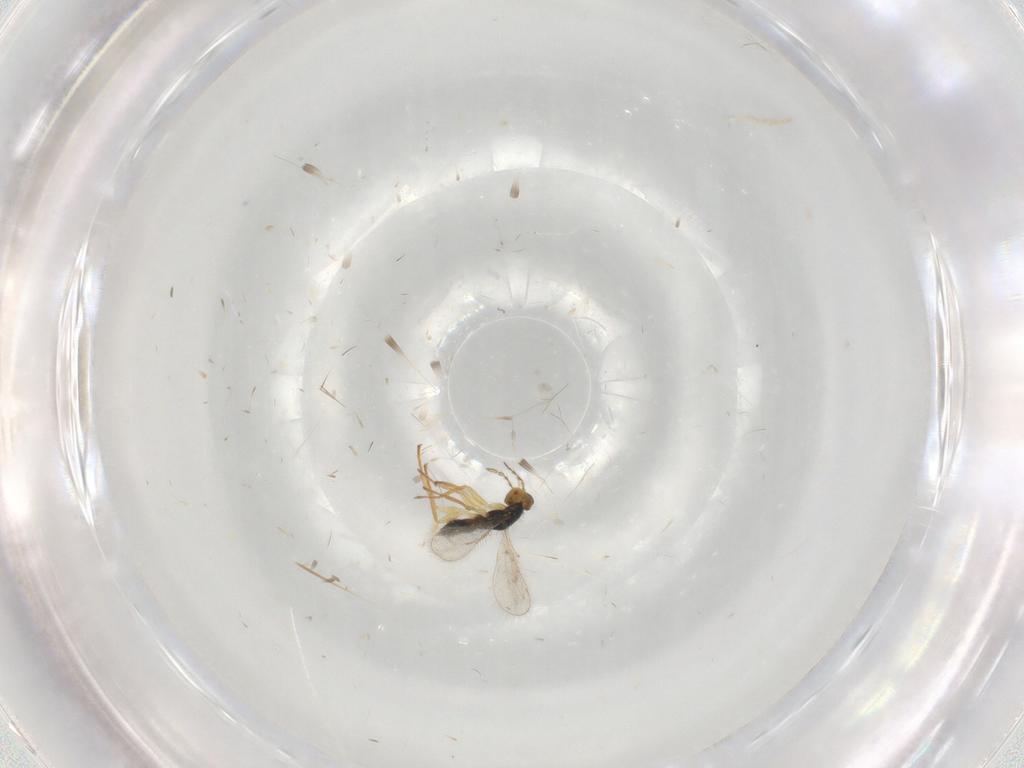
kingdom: Animalia
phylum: Arthropoda
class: Insecta
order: Hymenoptera
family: Eulophidae
